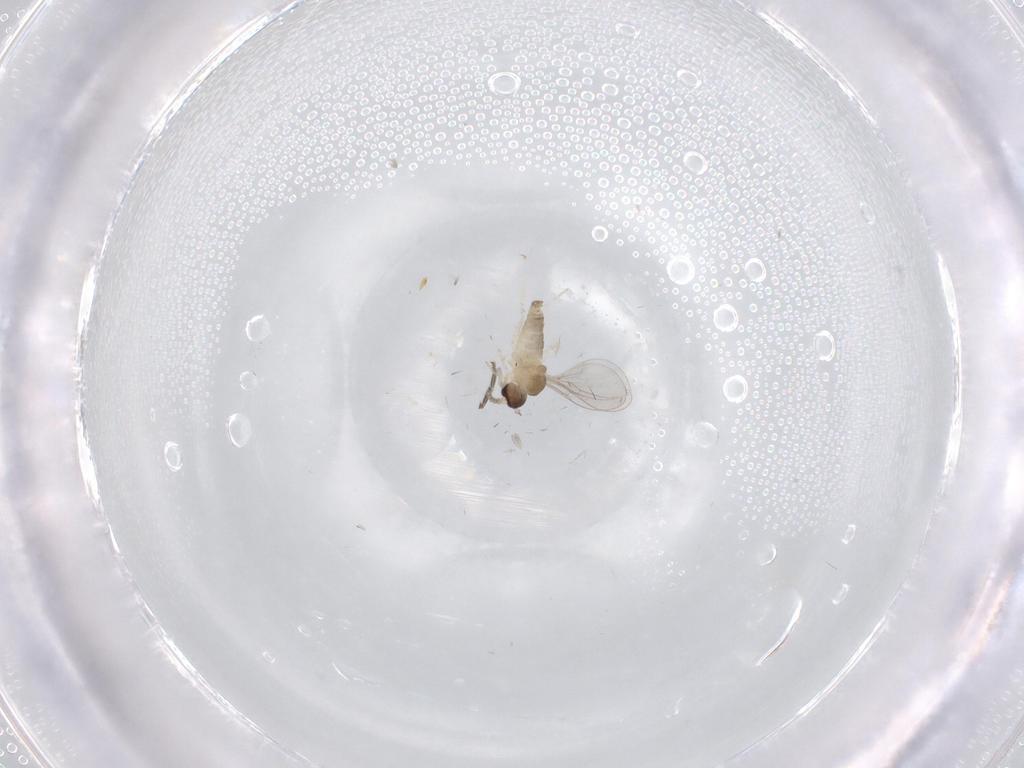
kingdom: Animalia
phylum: Arthropoda
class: Insecta
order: Diptera
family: Cecidomyiidae
